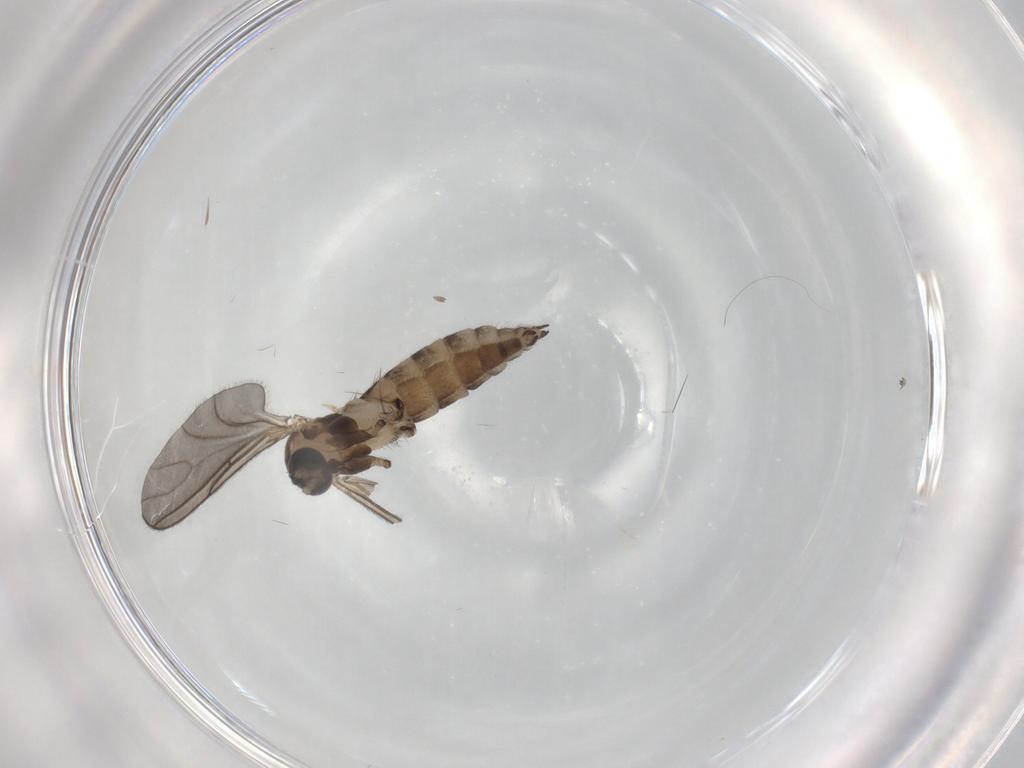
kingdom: Animalia
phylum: Arthropoda
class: Insecta
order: Diptera
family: Sciaridae
